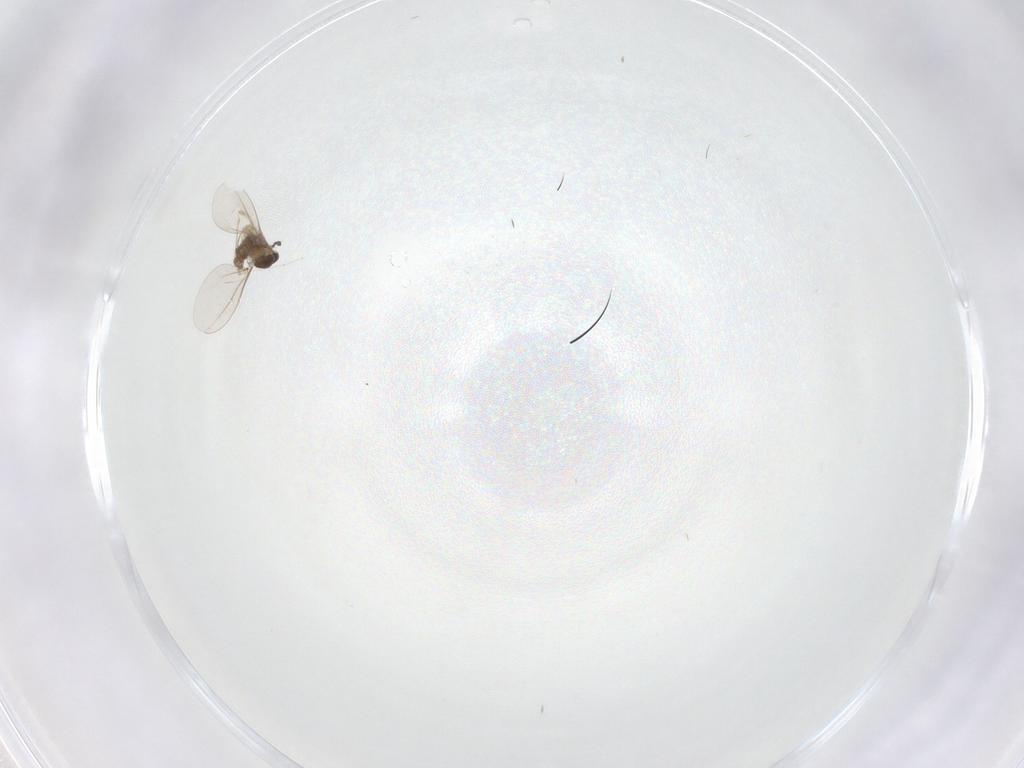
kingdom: Animalia
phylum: Arthropoda
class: Insecta
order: Diptera
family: Cecidomyiidae
